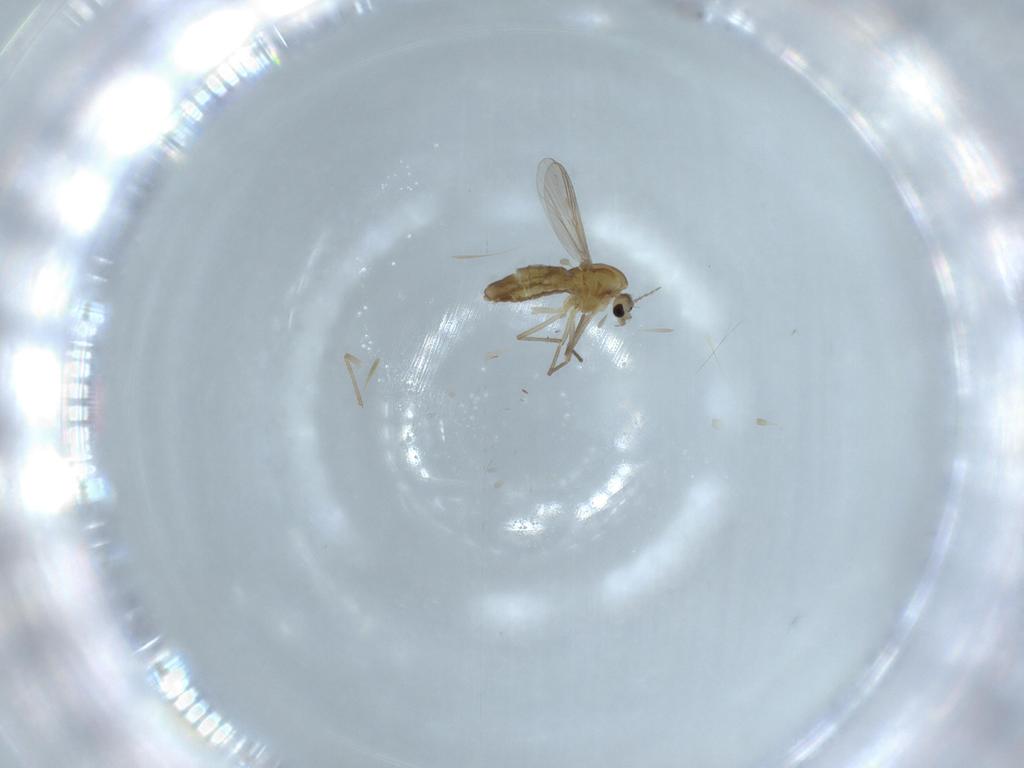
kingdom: Animalia
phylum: Arthropoda
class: Insecta
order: Diptera
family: Chironomidae
